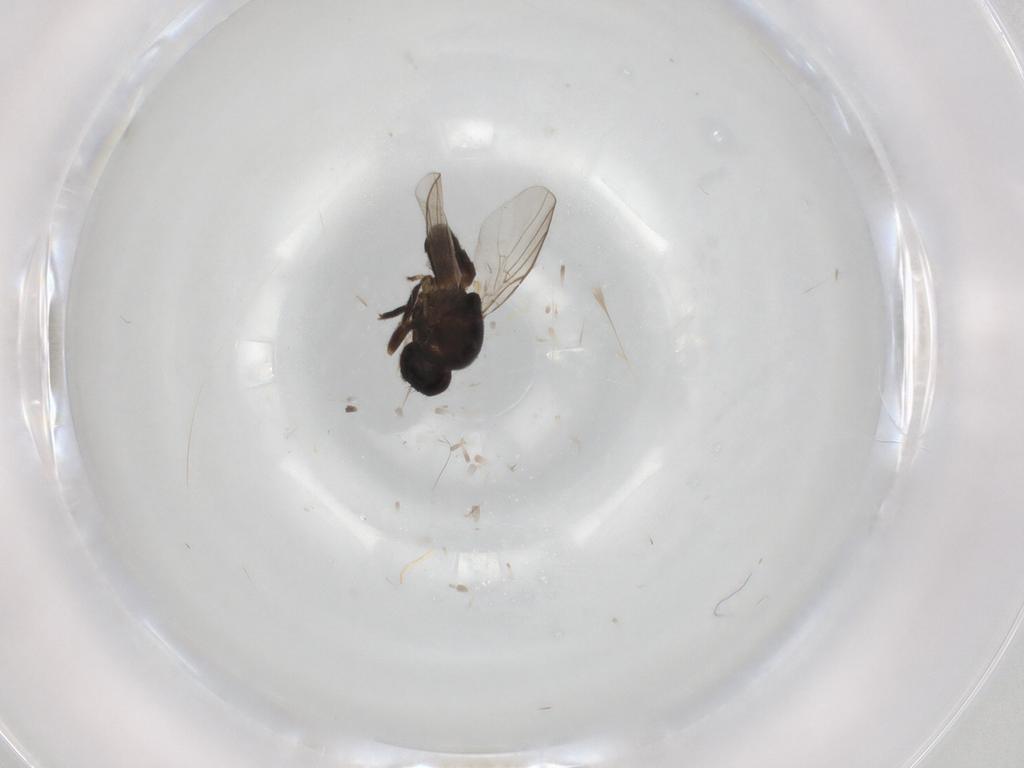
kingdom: Animalia
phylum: Arthropoda
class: Insecta
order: Diptera
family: Chloropidae
